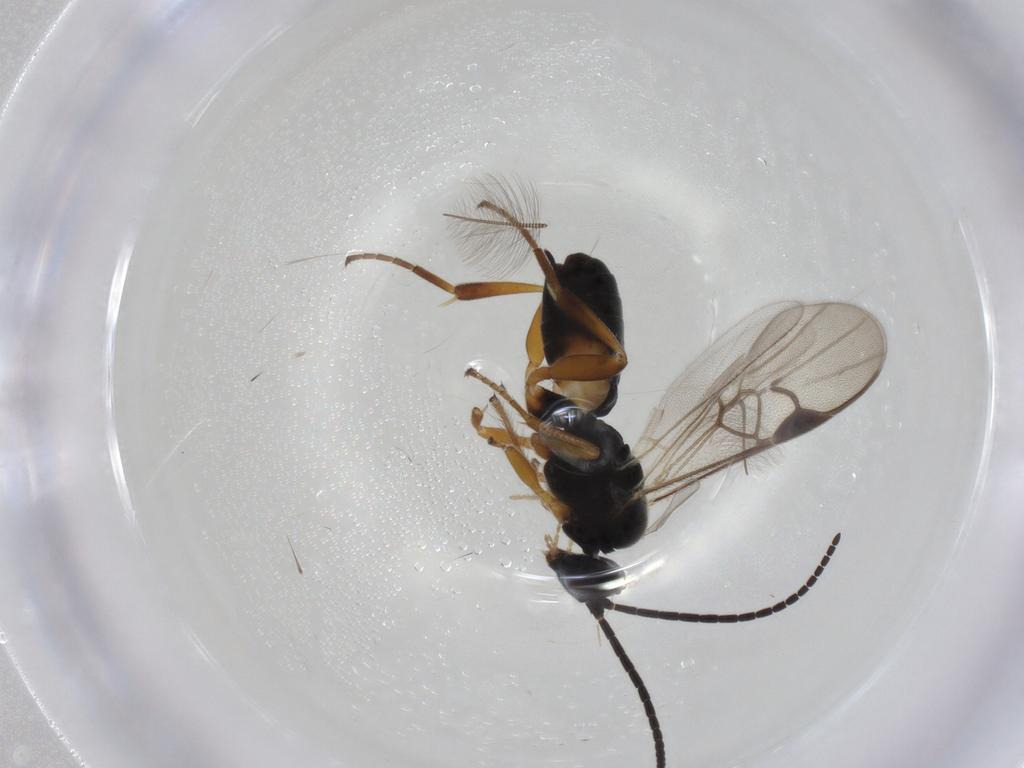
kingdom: Animalia
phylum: Arthropoda
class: Insecta
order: Hymenoptera
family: Braconidae
